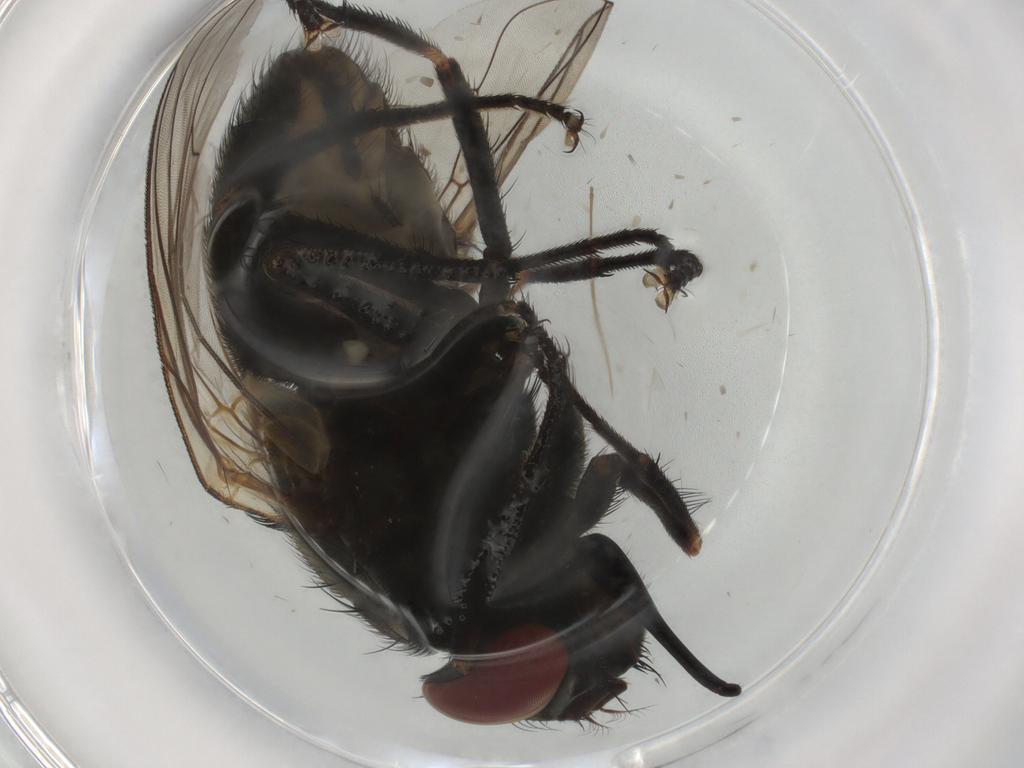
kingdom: Animalia
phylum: Arthropoda
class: Insecta
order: Diptera
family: Muscidae
